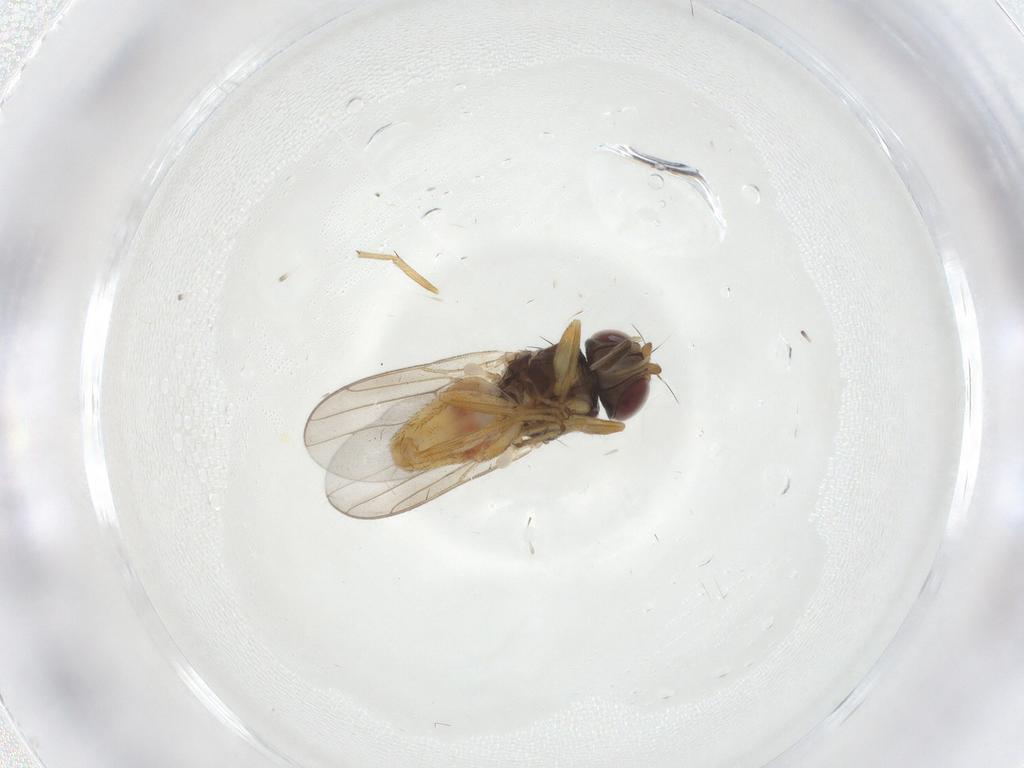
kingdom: Animalia
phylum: Arthropoda
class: Insecta
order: Diptera
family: Chloropidae
